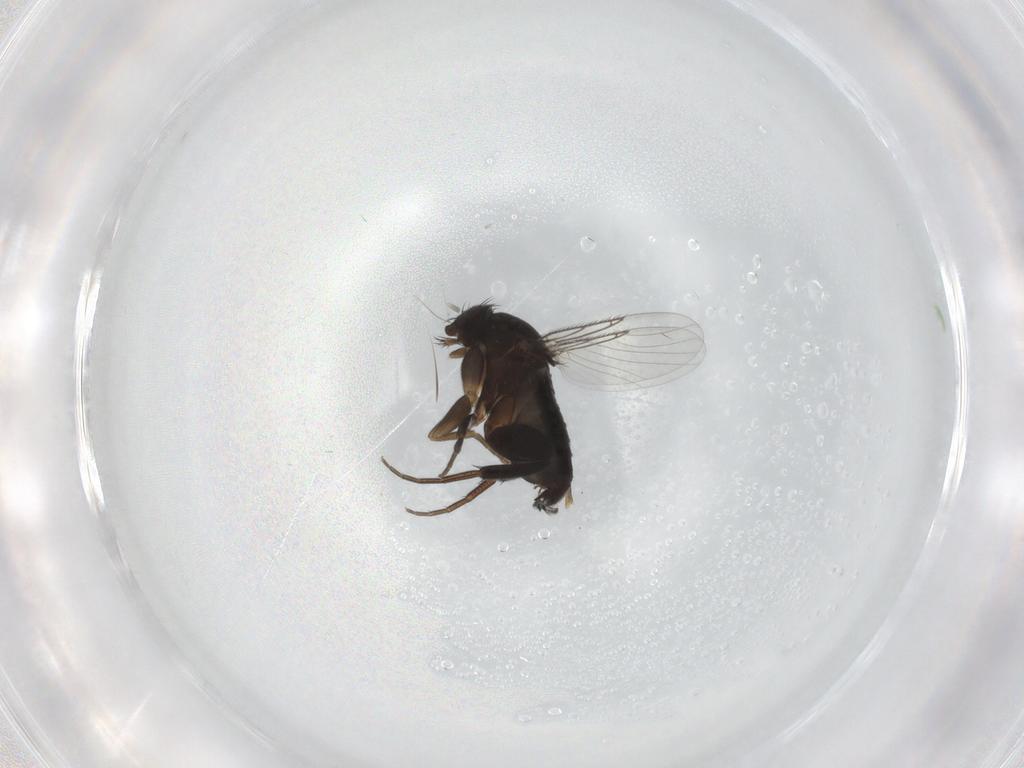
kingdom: Animalia
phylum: Arthropoda
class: Insecta
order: Diptera
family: Phoridae
